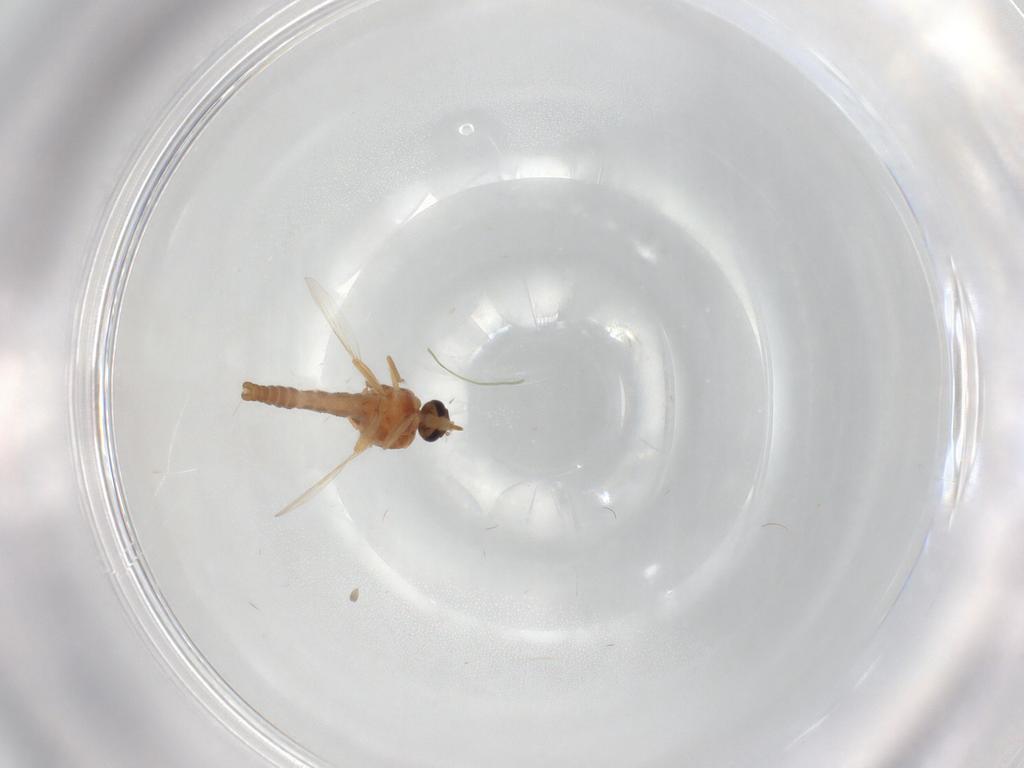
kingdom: Animalia
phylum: Arthropoda
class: Insecta
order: Diptera
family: Ceratopogonidae
